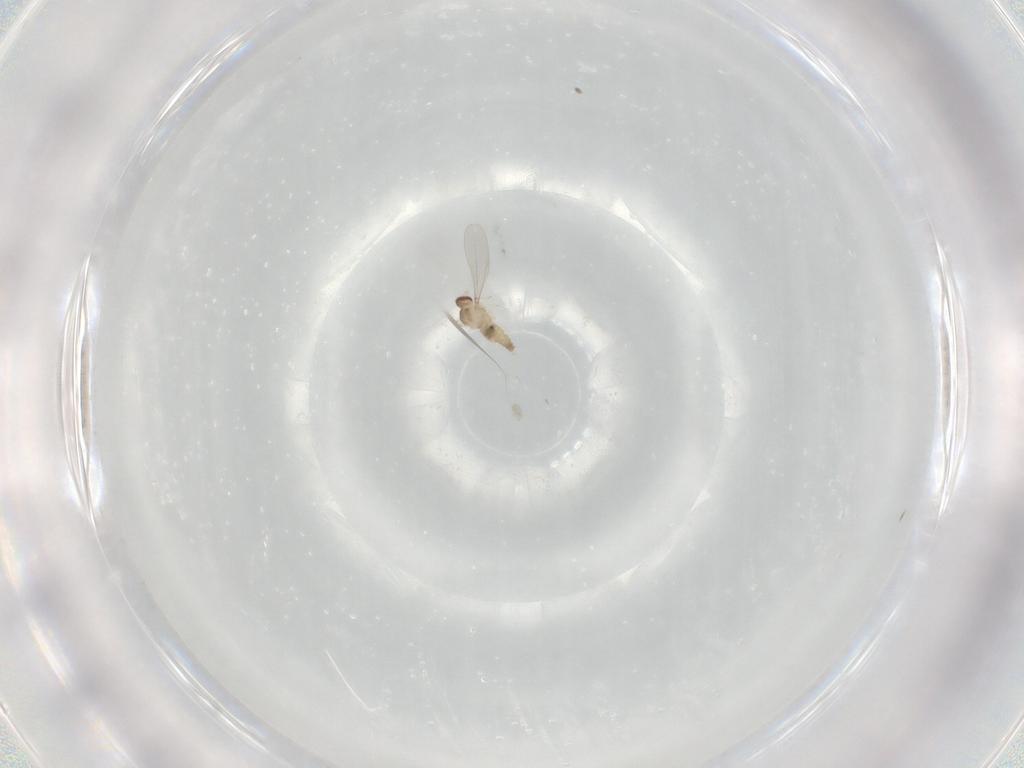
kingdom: Animalia
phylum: Arthropoda
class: Insecta
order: Diptera
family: Cecidomyiidae
